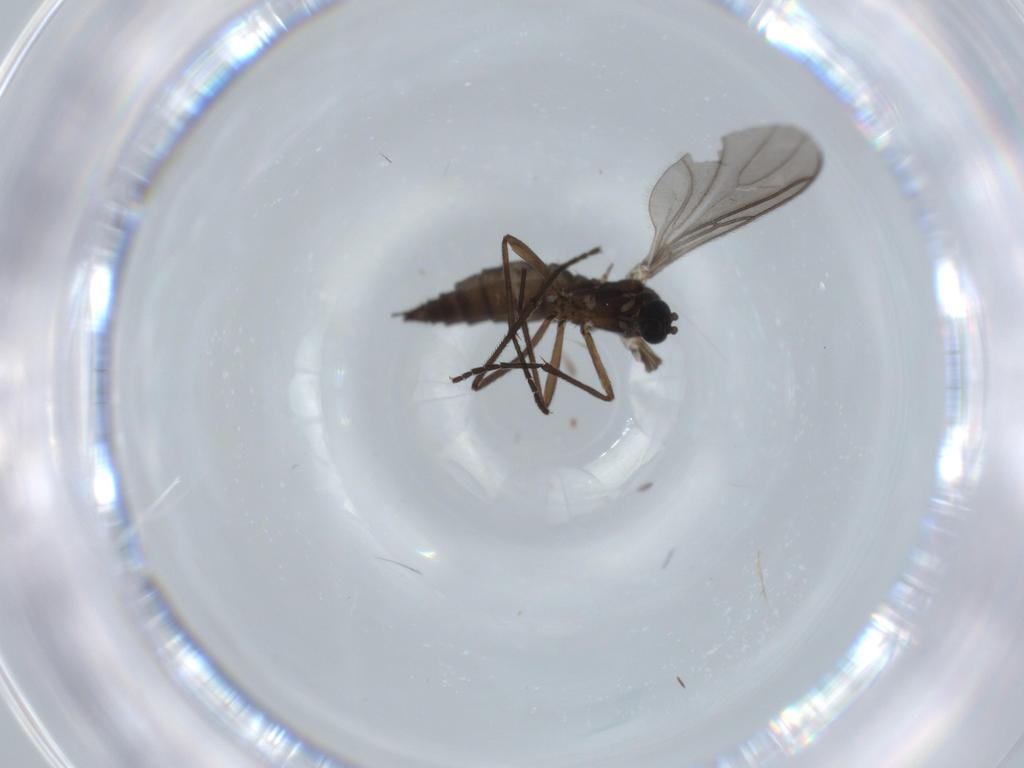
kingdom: Animalia
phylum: Arthropoda
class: Insecta
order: Diptera
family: Sciaridae
